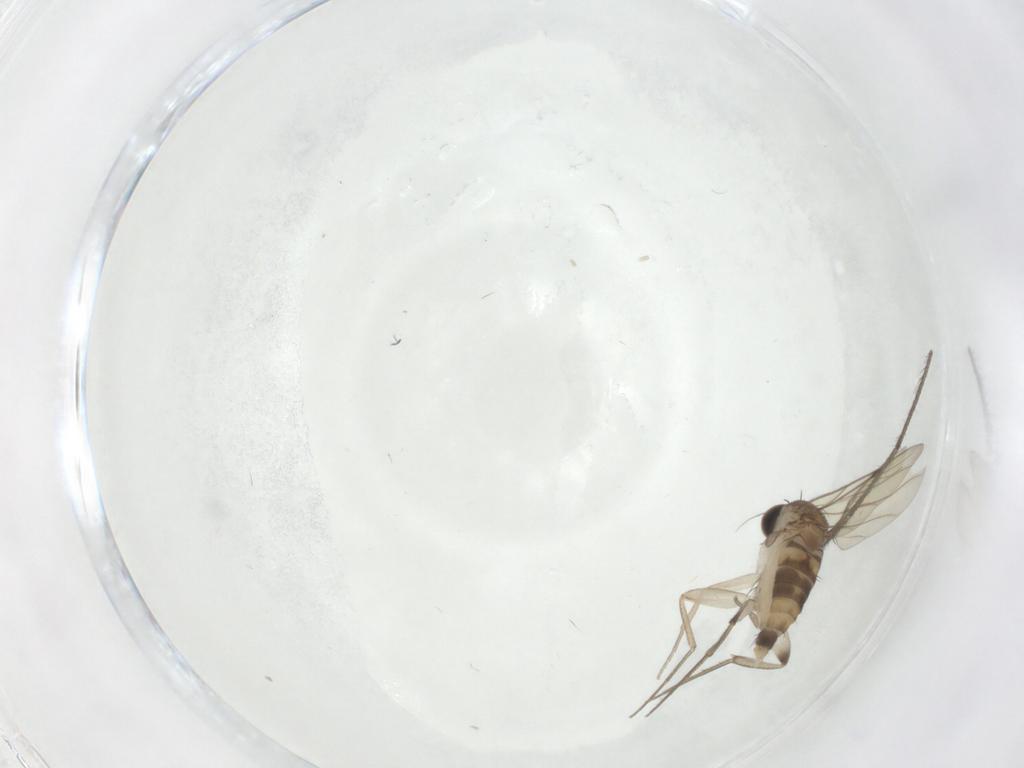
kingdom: Animalia
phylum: Arthropoda
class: Insecta
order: Diptera
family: Tipulidae
